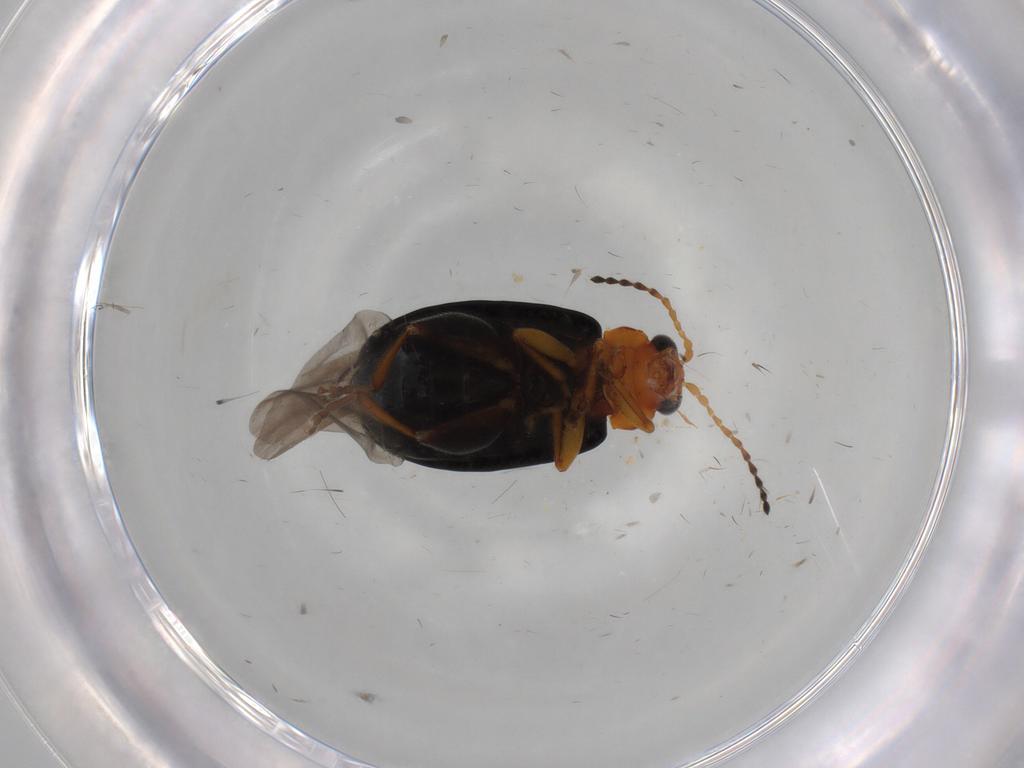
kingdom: Animalia
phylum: Arthropoda
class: Insecta
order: Coleoptera
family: Chrysomelidae
